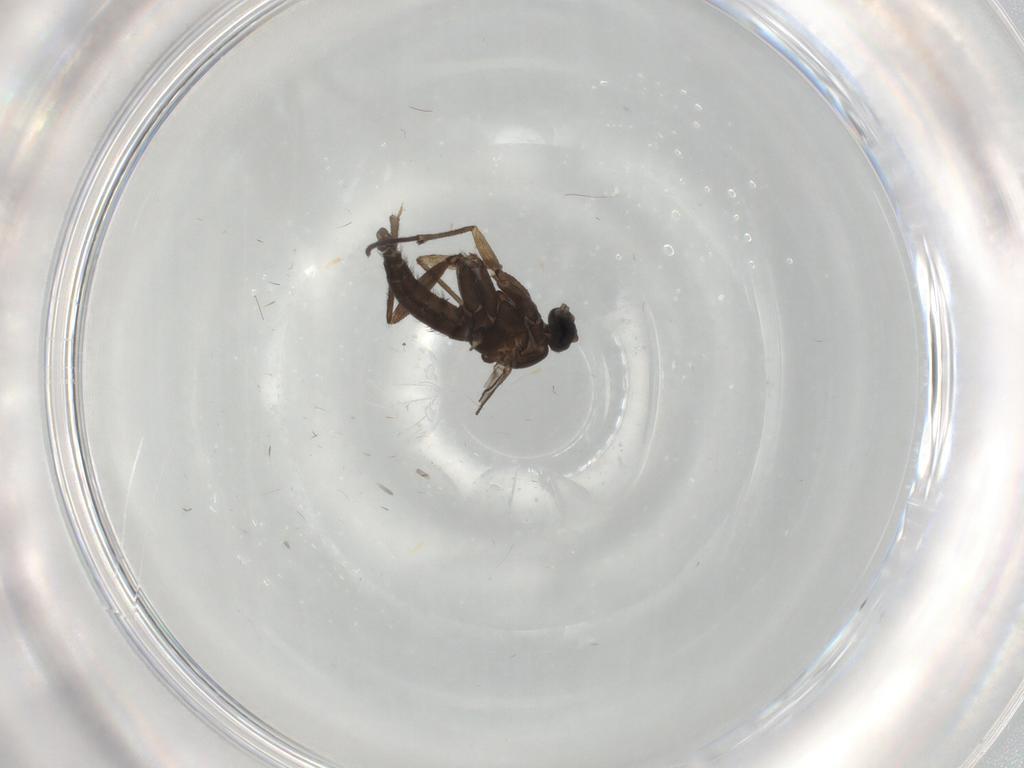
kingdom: Animalia
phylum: Arthropoda
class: Insecta
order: Diptera
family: Sciaridae
